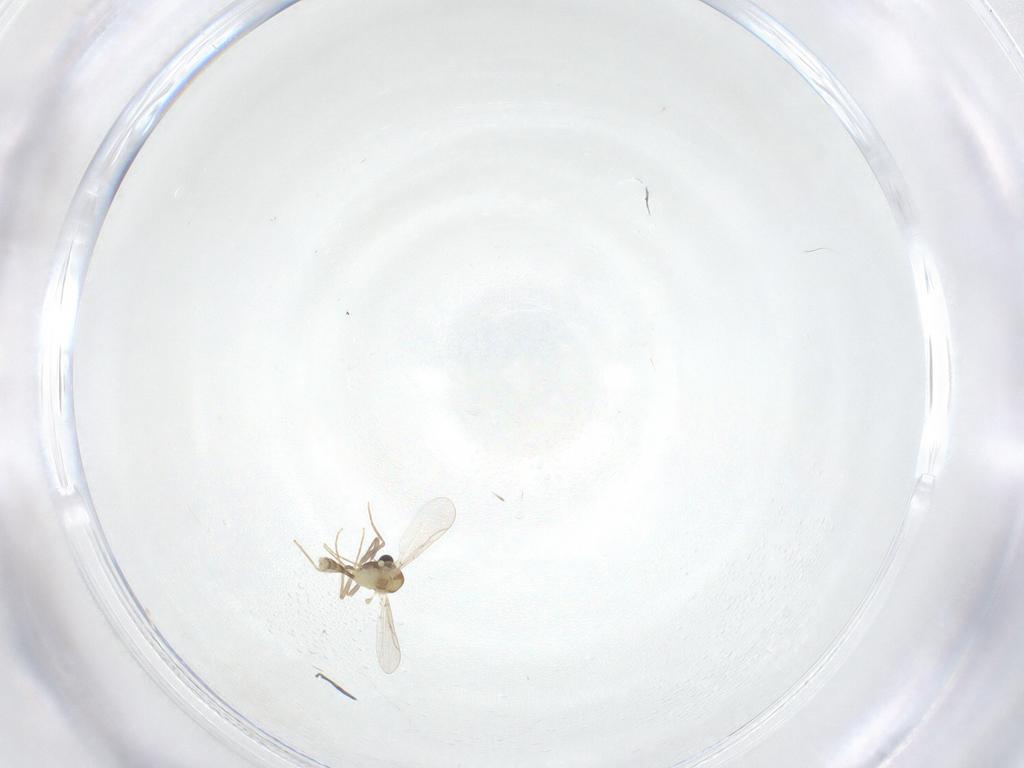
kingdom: Animalia
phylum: Arthropoda
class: Insecta
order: Diptera
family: Chironomidae
